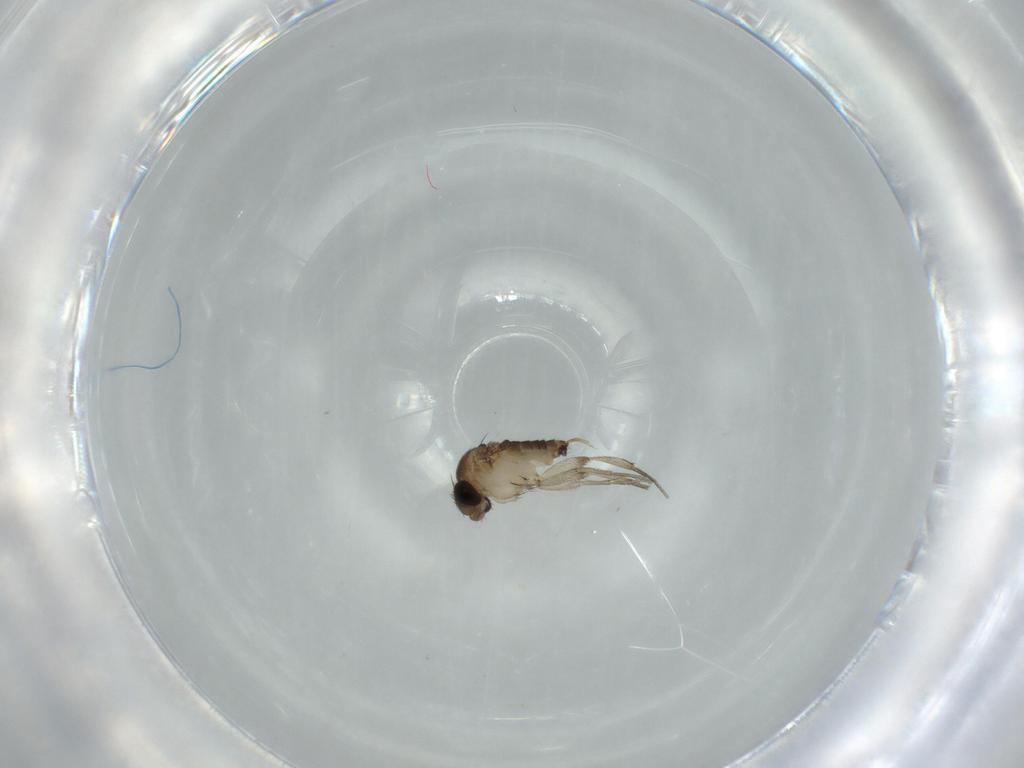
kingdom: Animalia
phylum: Arthropoda
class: Insecta
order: Diptera
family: Phoridae
